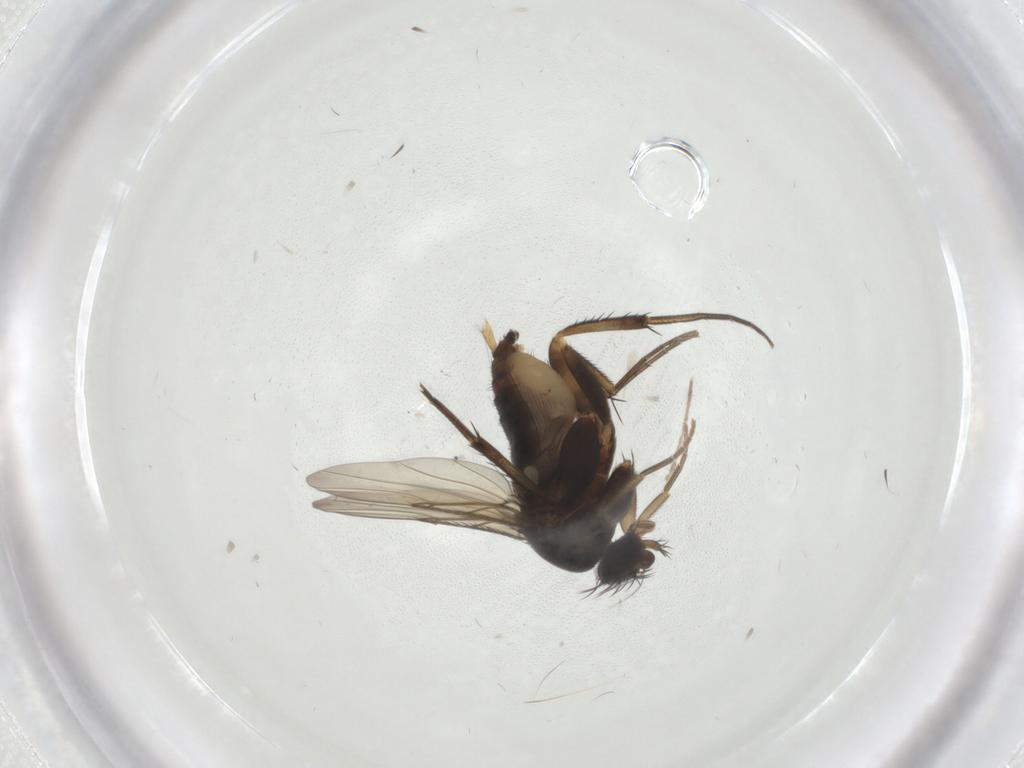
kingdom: Animalia
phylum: Arthropoda
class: Insecta
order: Diptera
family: Phoridae
